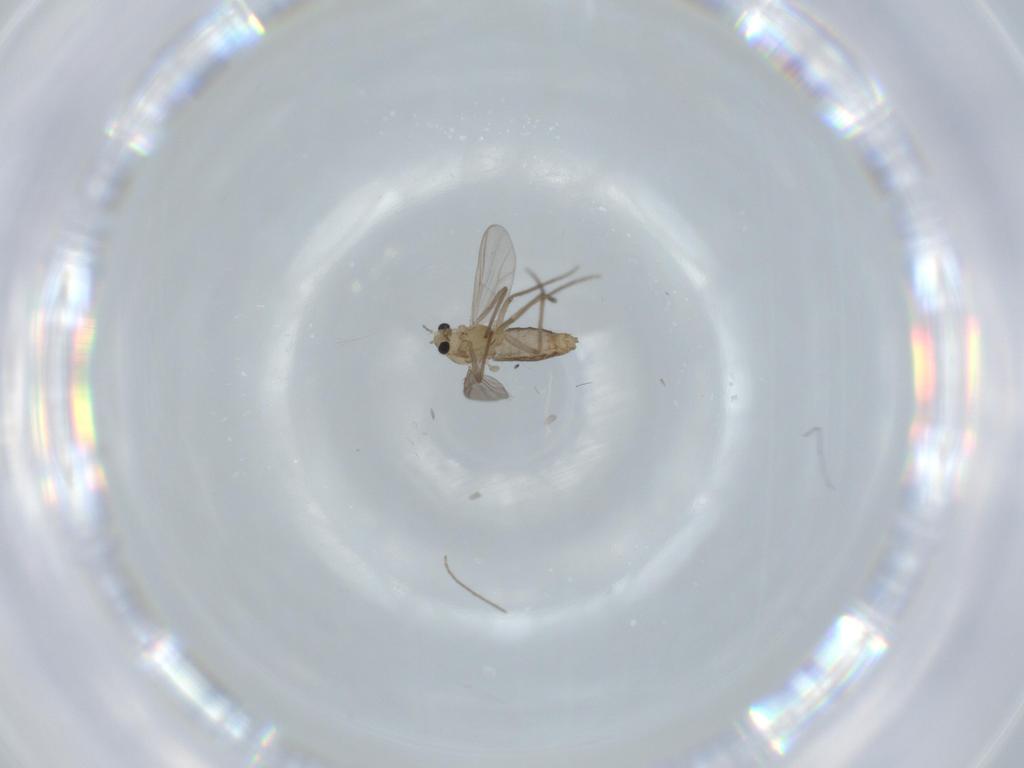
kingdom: Animalia
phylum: Arthropoda
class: Insecta
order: Diptera
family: Chironomidae
